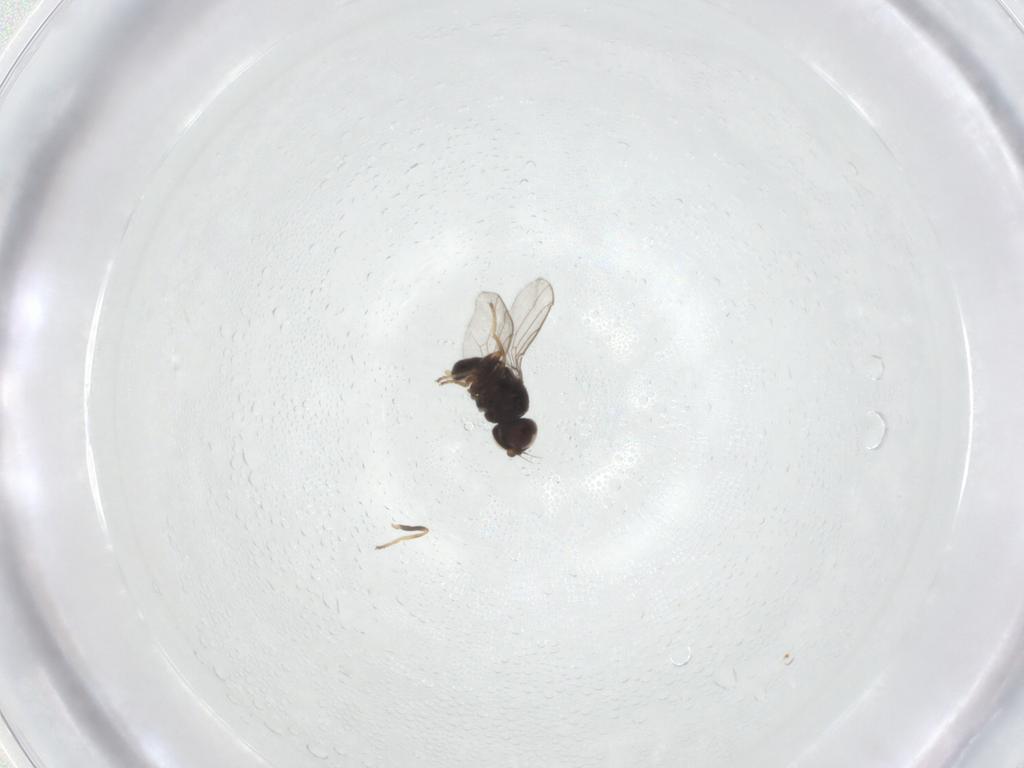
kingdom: Animalia
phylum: Arthropoda
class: Insecta
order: Diptera
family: Chloropidae
